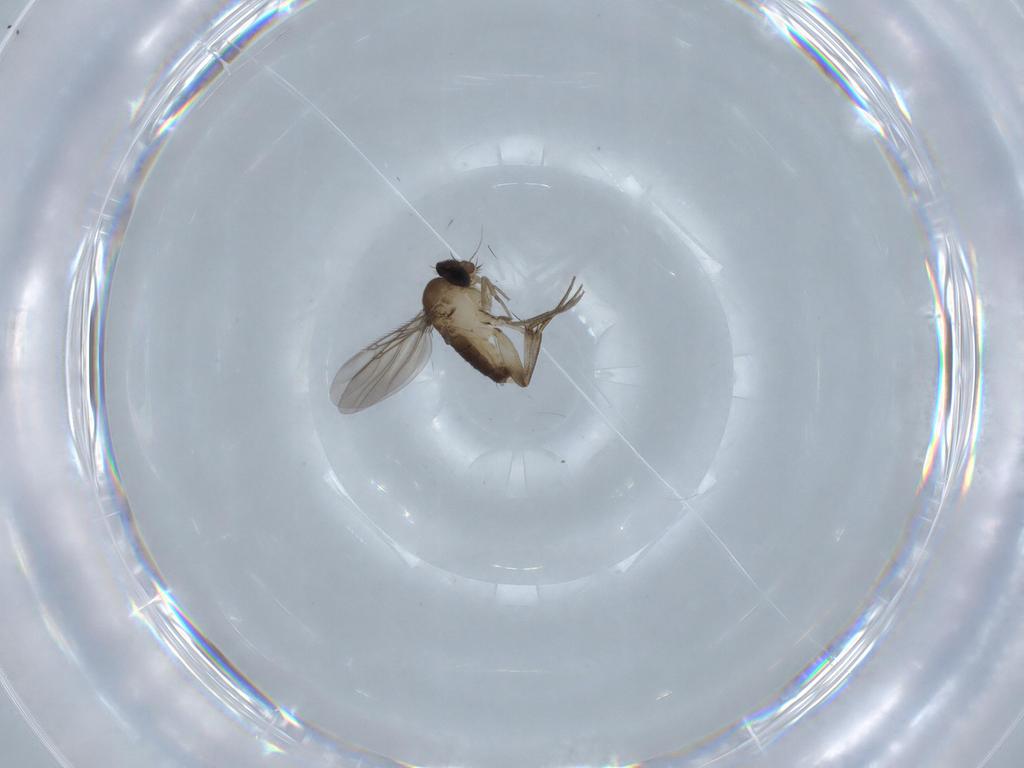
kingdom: Animalia
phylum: Arthropoda
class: Insecta
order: Diptera
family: Phoridae
